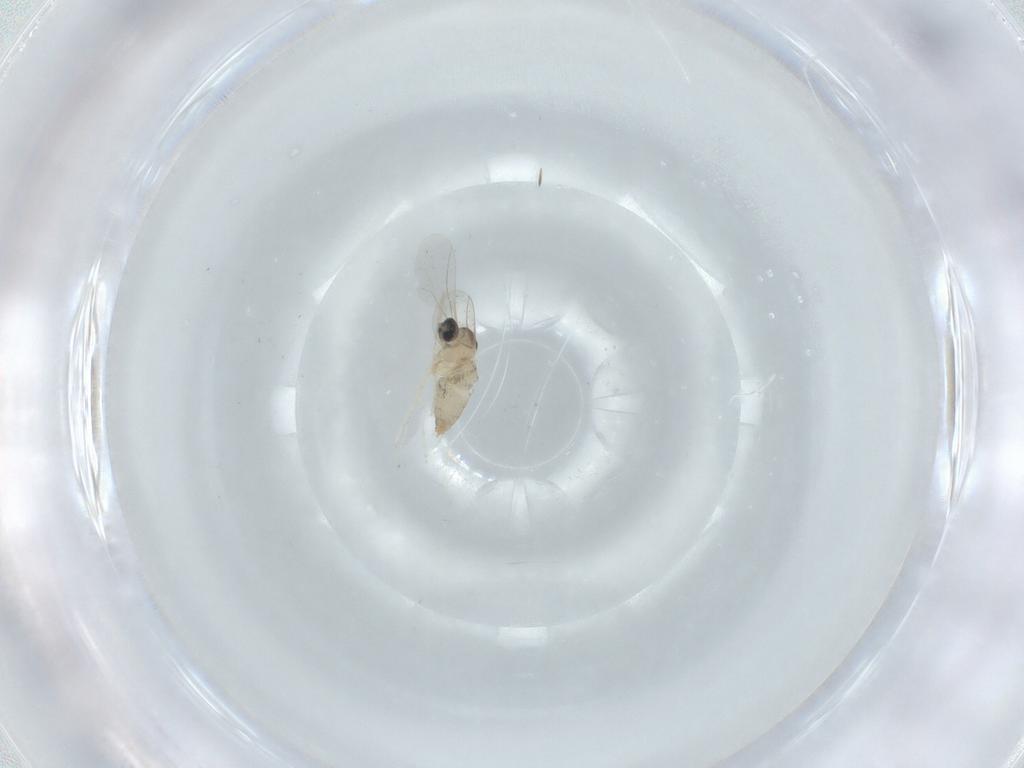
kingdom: Animalia
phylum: Arthropoda
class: Insecta
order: Diptera
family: Cecidomyiidae
